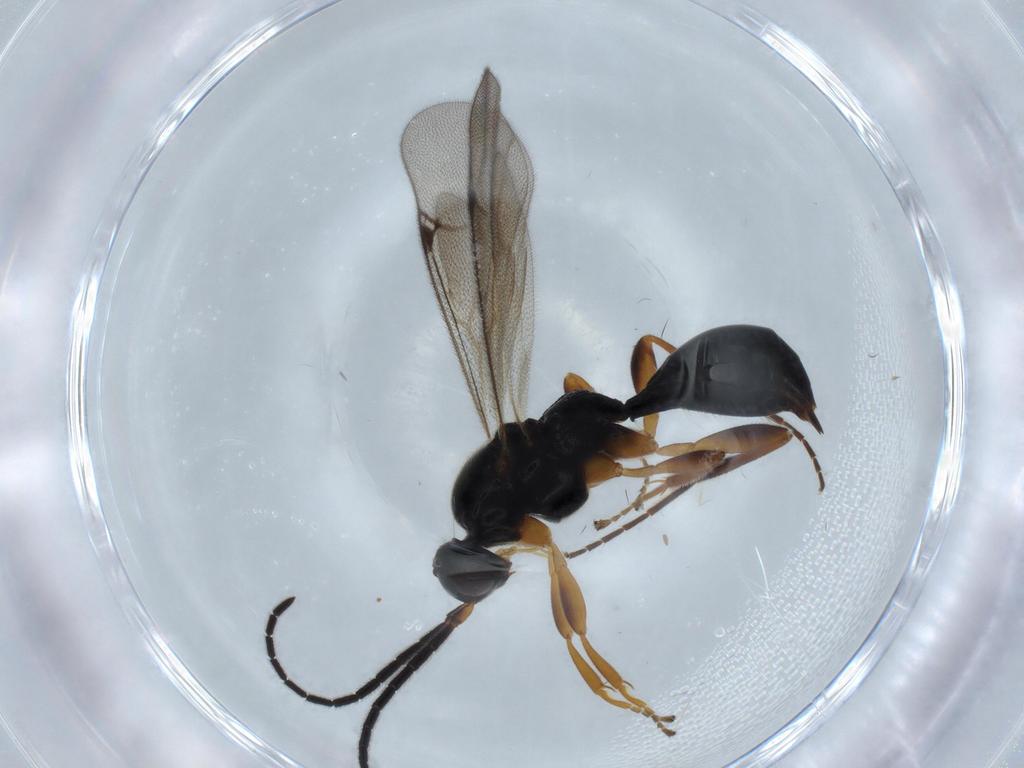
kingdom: Animalia
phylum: Arthropoda
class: Insecta
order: Hymenoptera
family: Proctotrupidae
